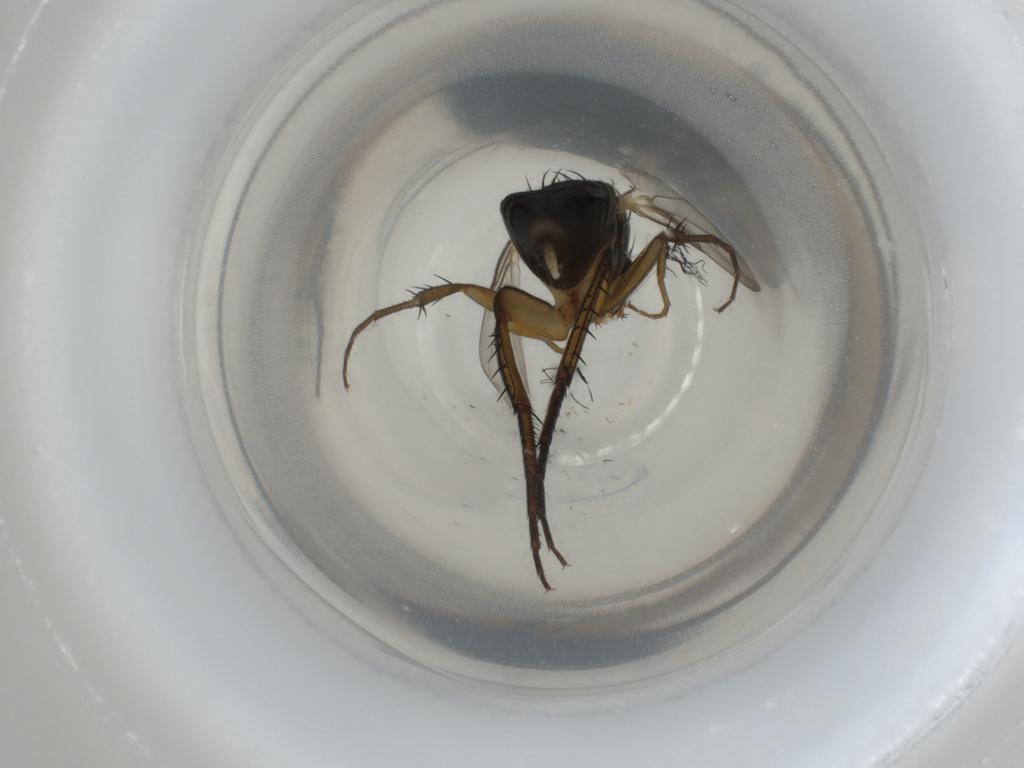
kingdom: Animalia
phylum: Arthropoda
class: Insecta
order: Diptera
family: Phoridae
